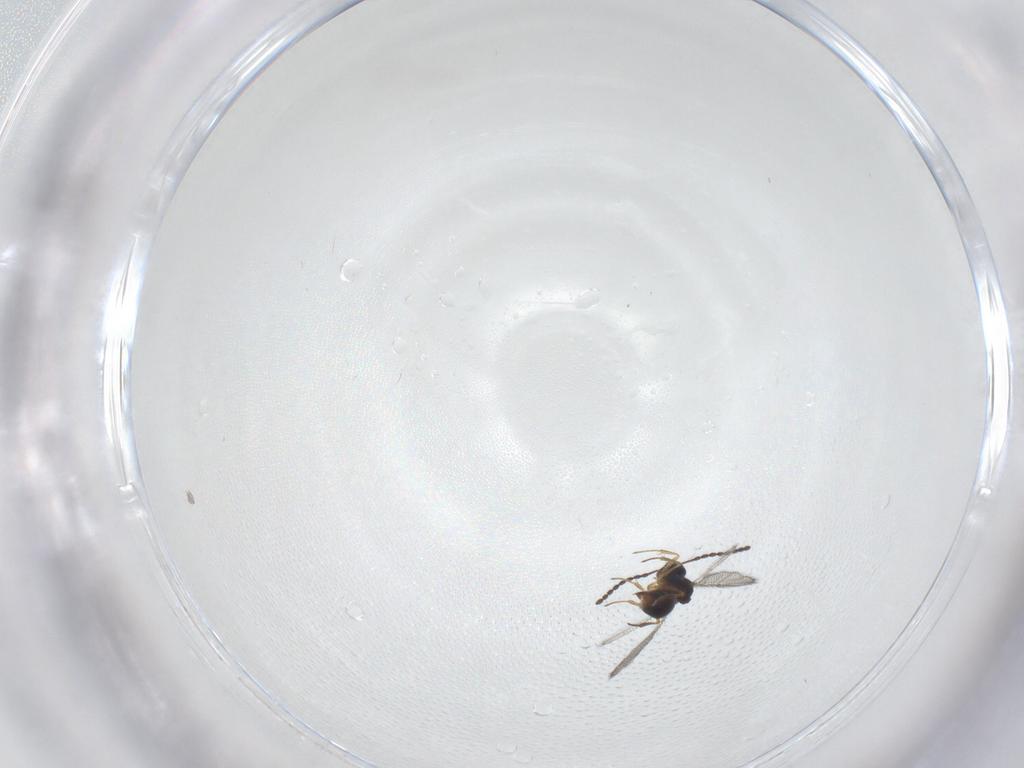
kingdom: Animalia
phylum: Arthropoda
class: Insecta
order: Hymenoptera
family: Figitidae
